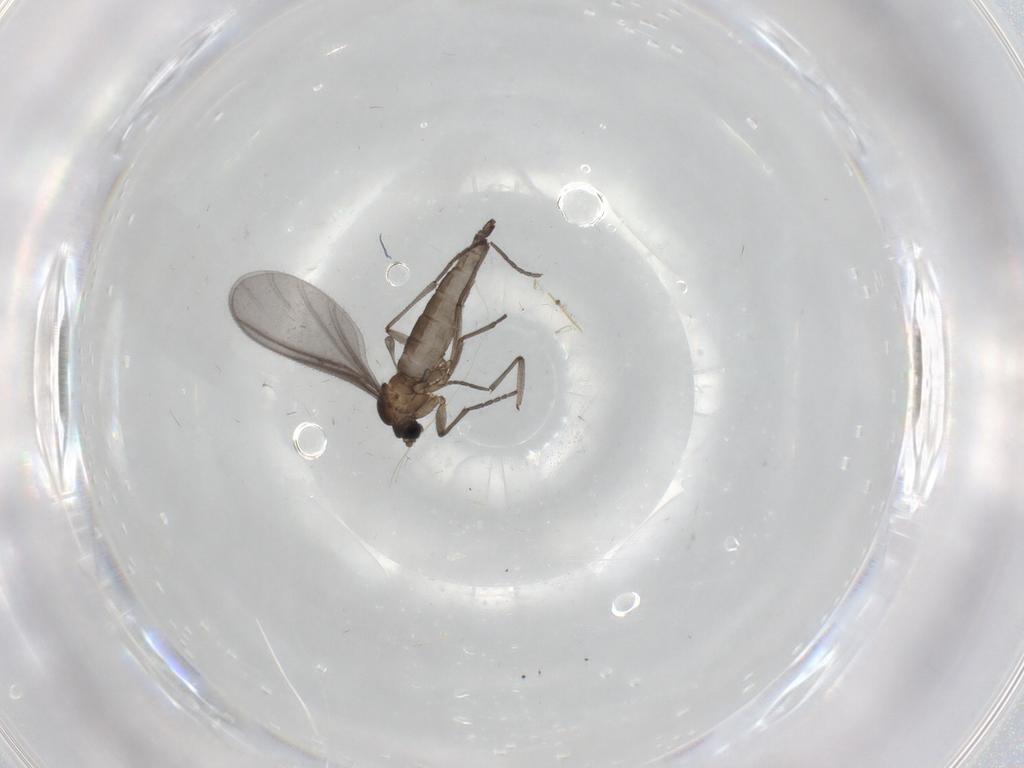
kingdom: Animalia
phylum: Arthropoda
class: Insecta
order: Diptera
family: Sciaridae
